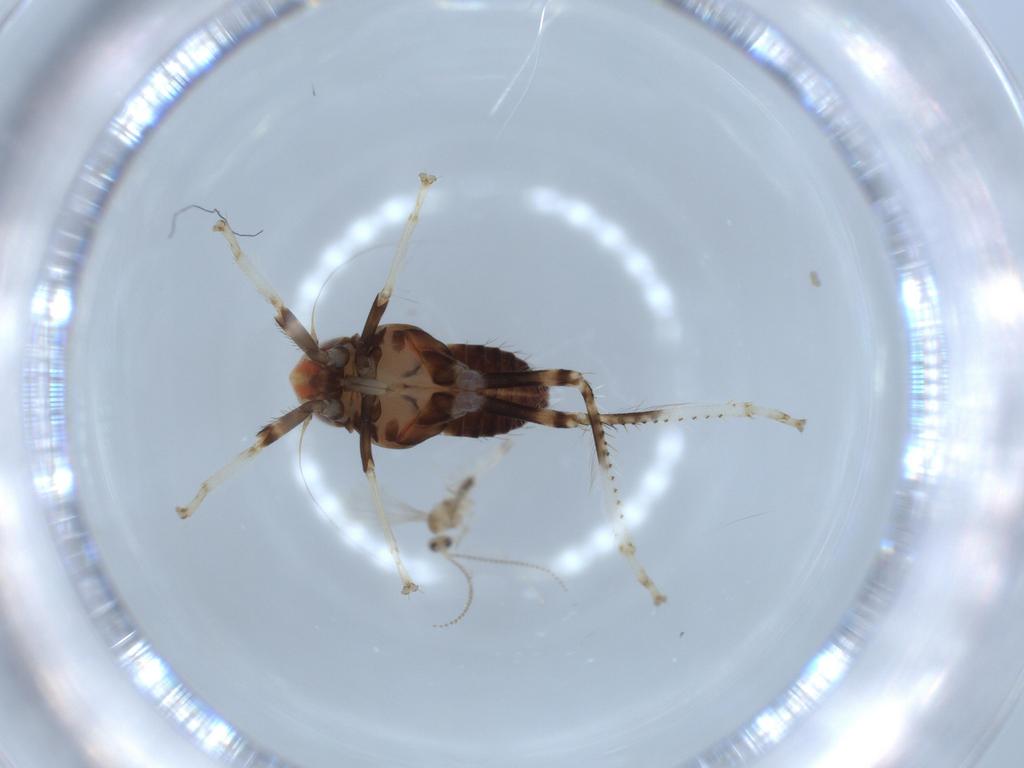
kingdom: Animalia
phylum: Arthropoda
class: Insecta
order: Hemiptera
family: Cicadellidae
